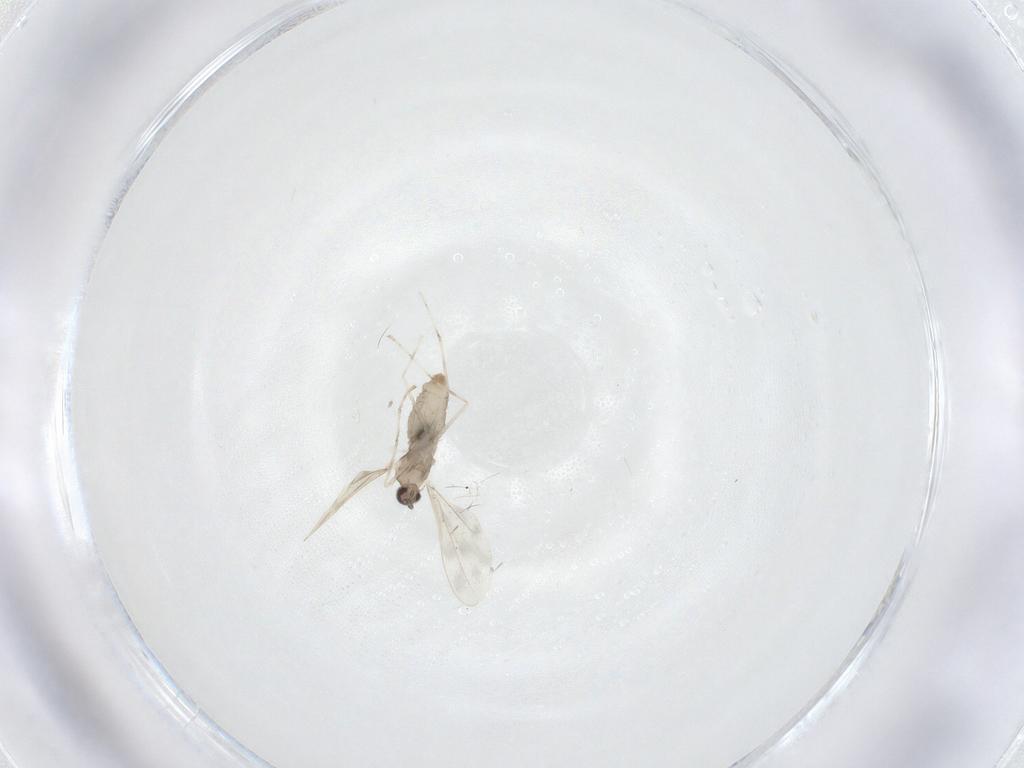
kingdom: Animalia
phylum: Arthropoda
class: Insecta
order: Diptera
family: Cecidomyiidae
